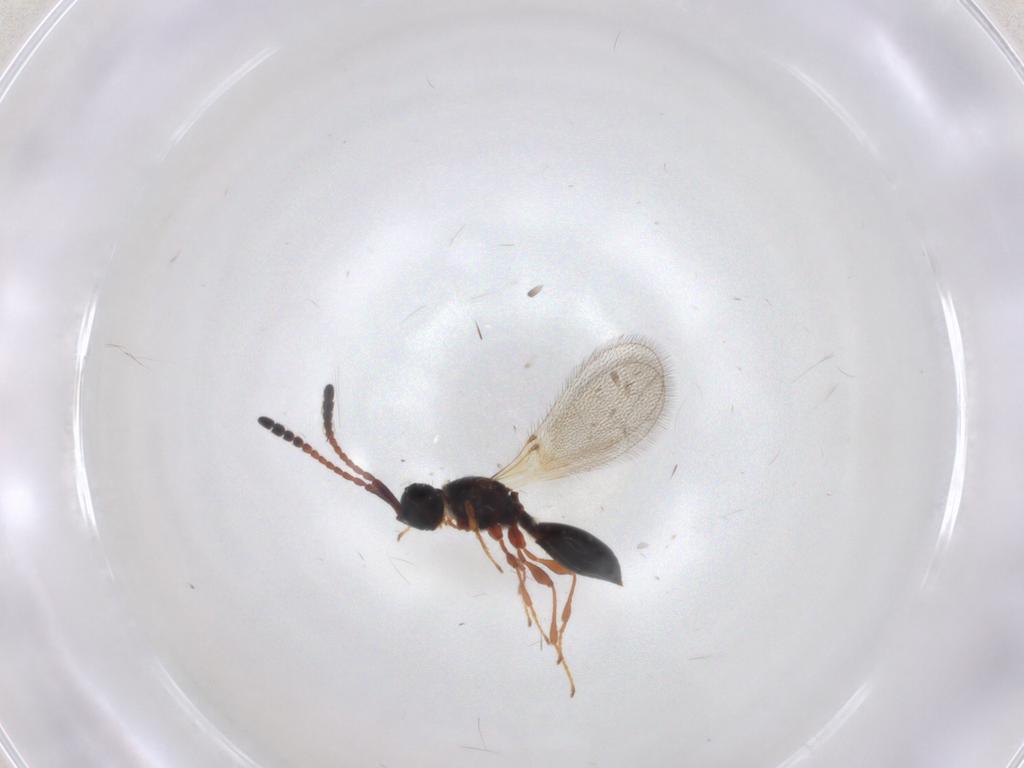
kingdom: Animalia
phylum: Arthropoda
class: Insecta
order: Hymenoptera
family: Diapriidae
